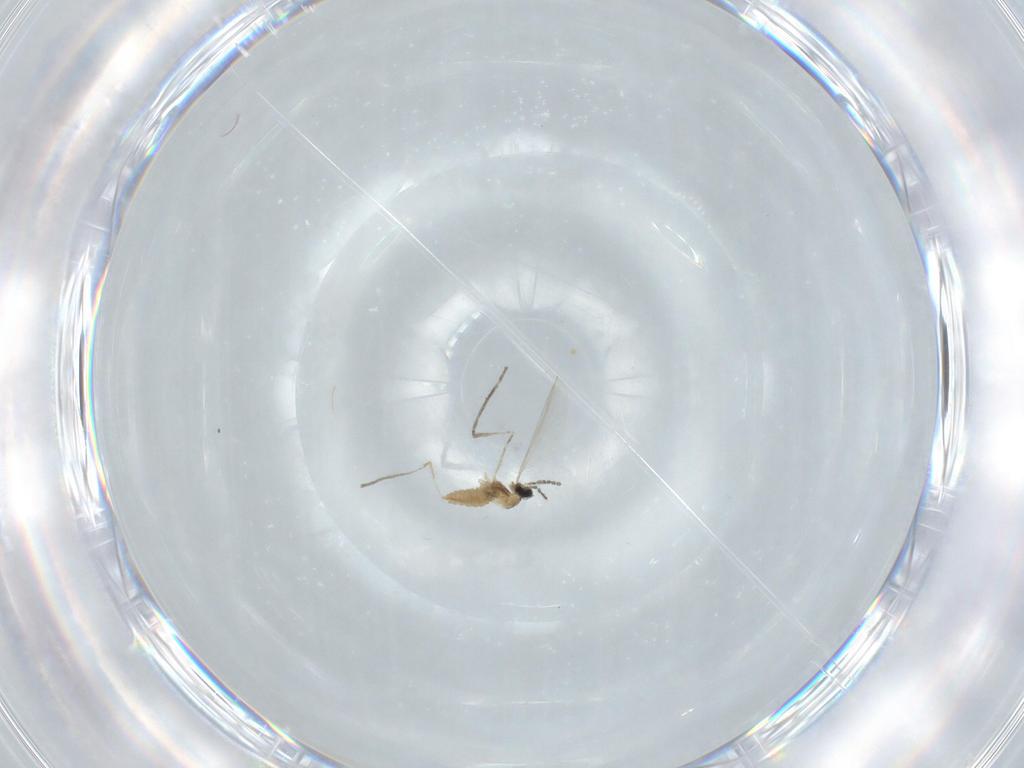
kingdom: Animalia
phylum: Arthropoda
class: Insecta
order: Diptera
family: Cecidomyiidae
